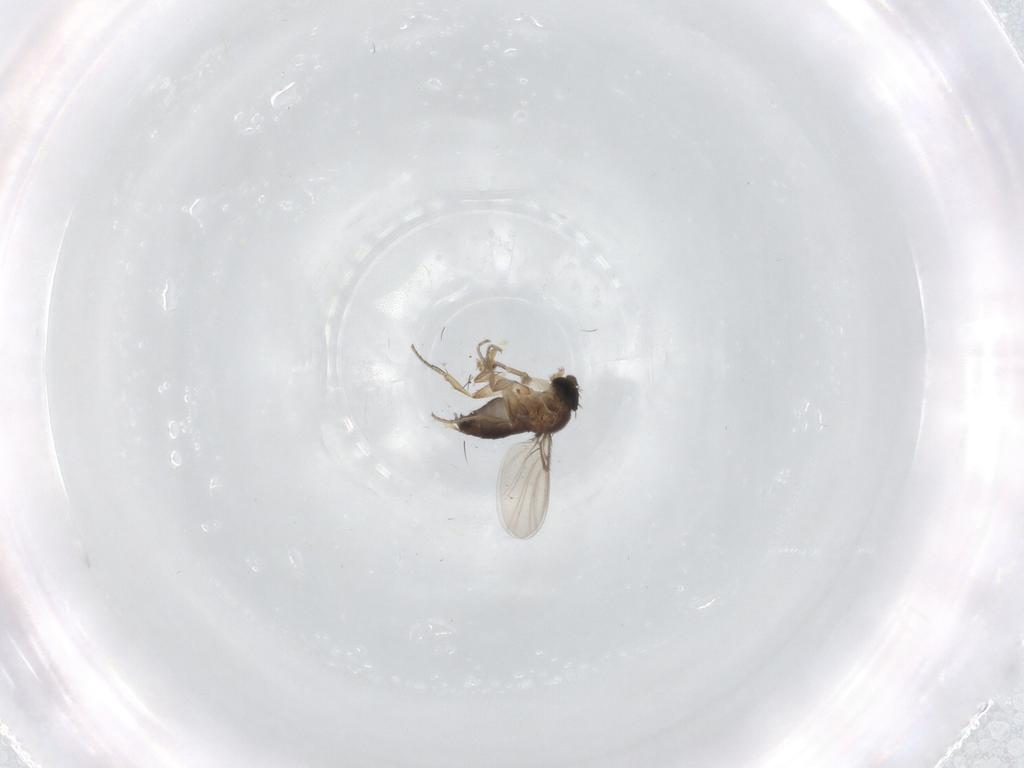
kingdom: Animalia
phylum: Arthropoda
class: Insecta
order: Diptera
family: Phoridae
